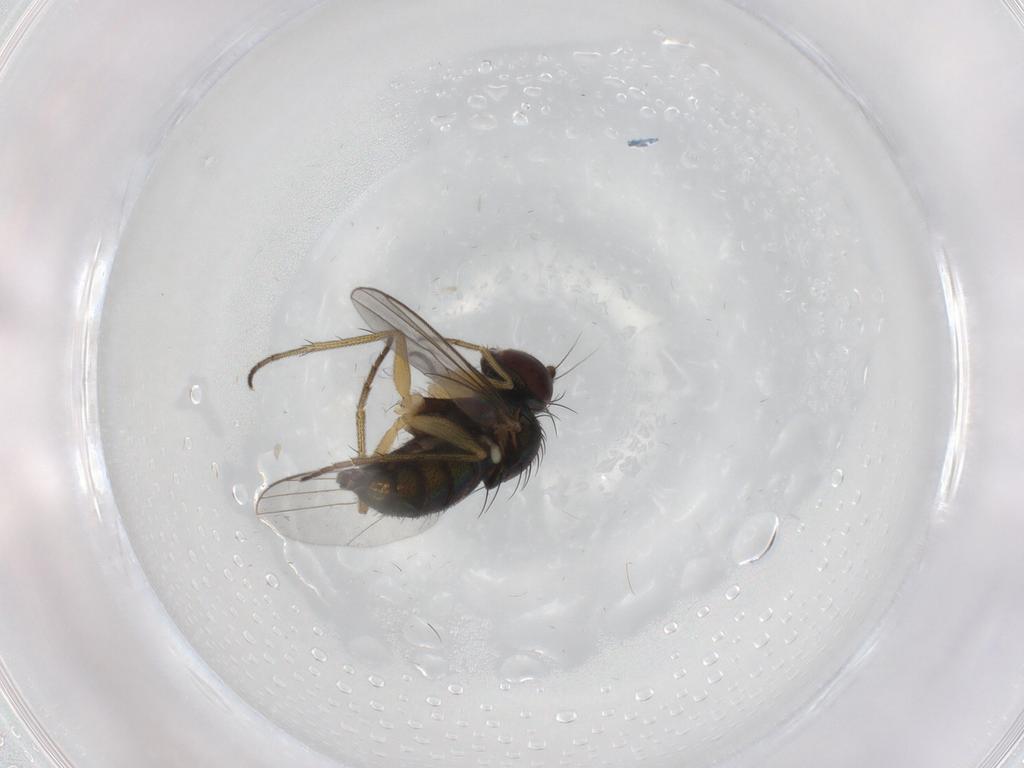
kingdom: Animalia
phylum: Arthropoda
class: Insecta
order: Diptera
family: Dolichopodidae
